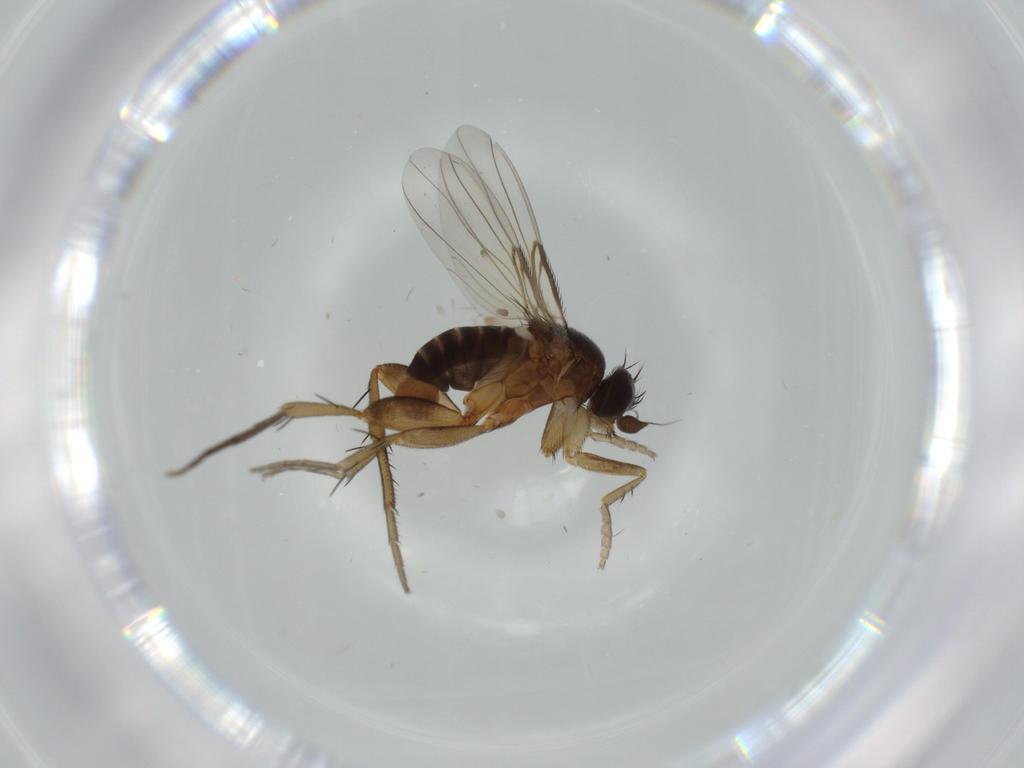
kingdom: Animalia
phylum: Arthropoda
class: Insecta
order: Diptera
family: Phoridae
